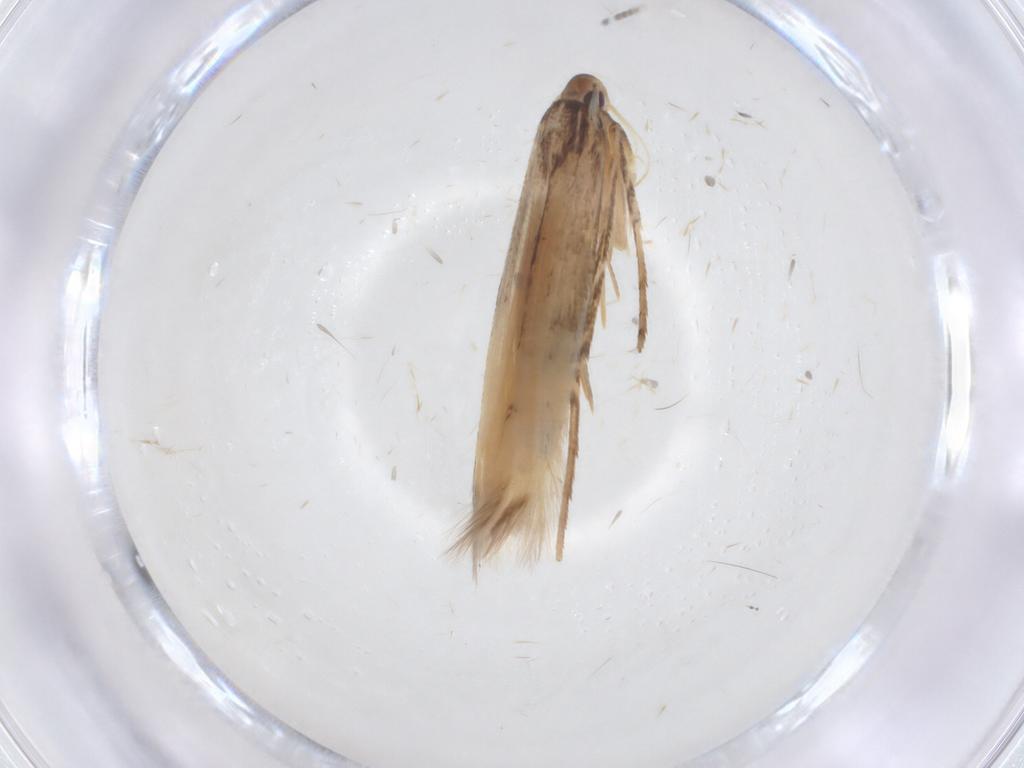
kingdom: Animalia
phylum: Arthropoda
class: Insecta
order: Lepidoptera
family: Cosmopterigidae
